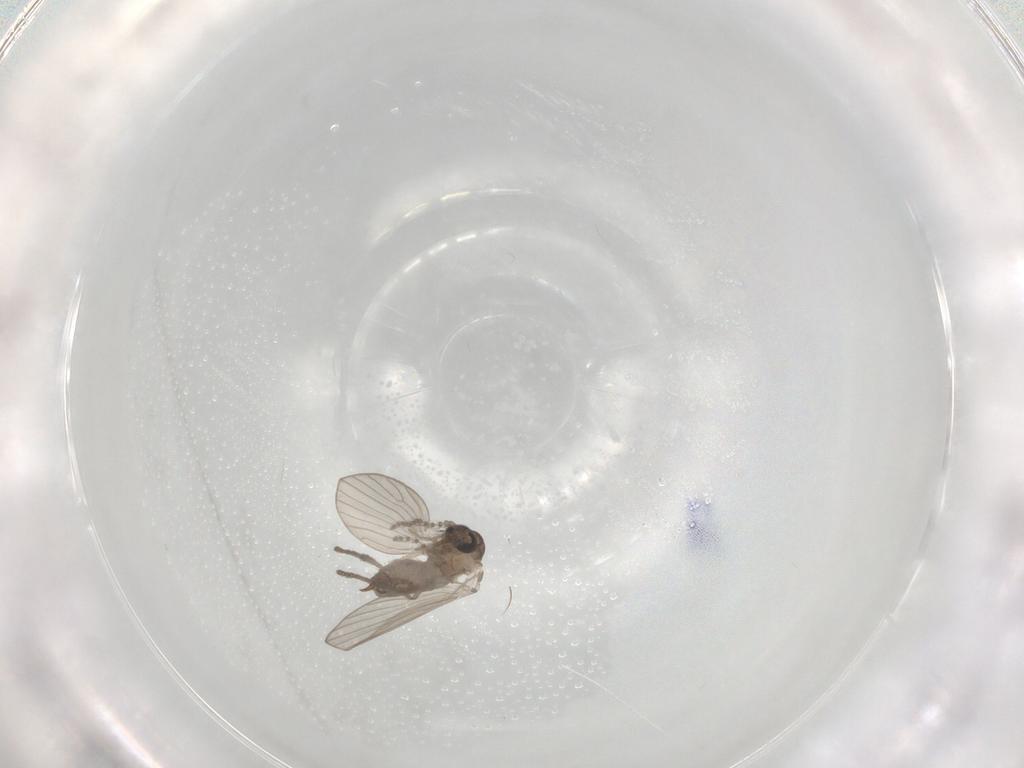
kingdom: Animalia
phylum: Arthropoda
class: Insecta
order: Diptera
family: Psychodidae
